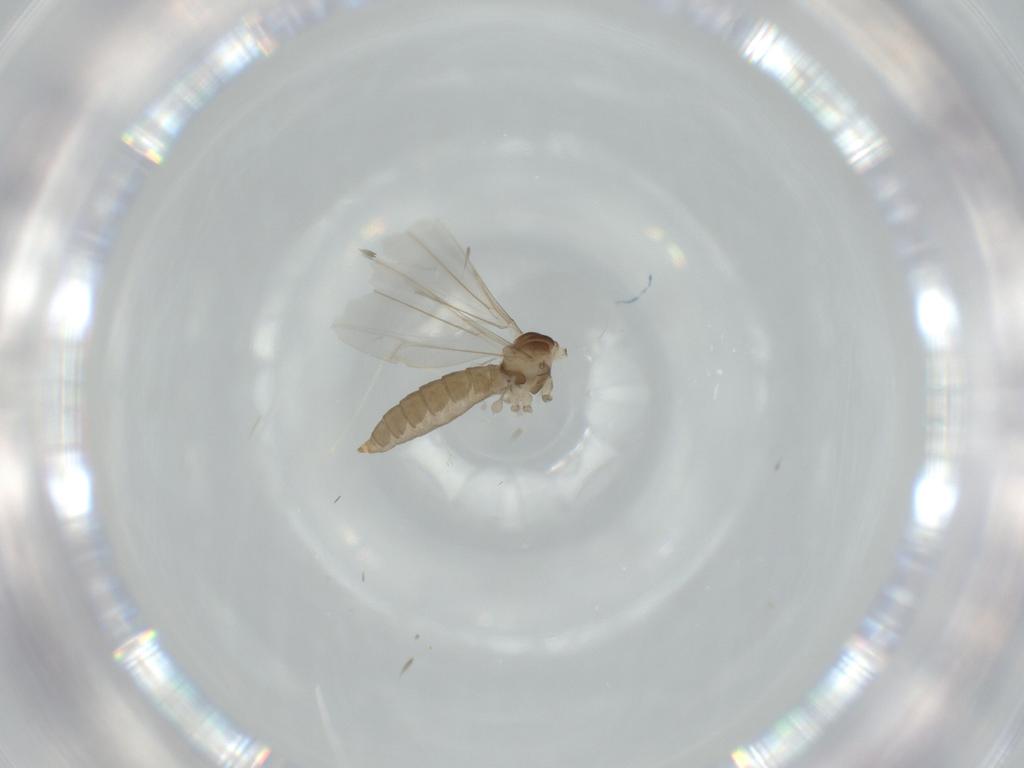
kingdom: Animalia
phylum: Arthropoda
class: Insecta
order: Diptera
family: Cecidomyiidae
